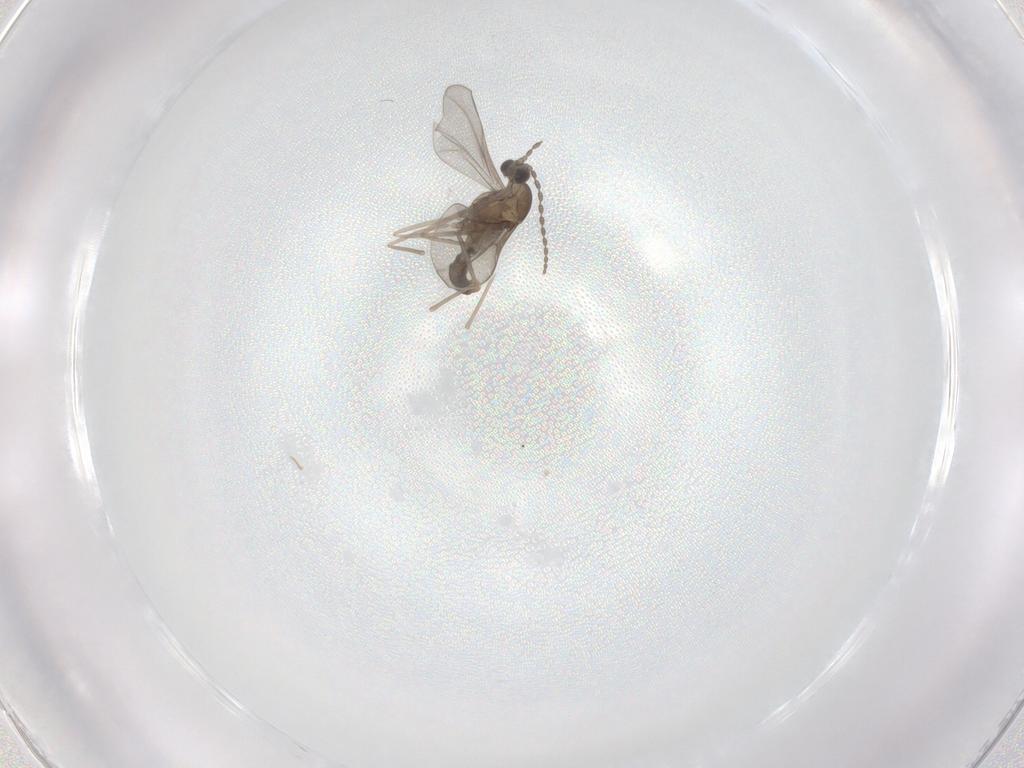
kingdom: Animalia
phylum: Arthropoda
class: Insecta
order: Diptera
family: Cecidomyiidae
